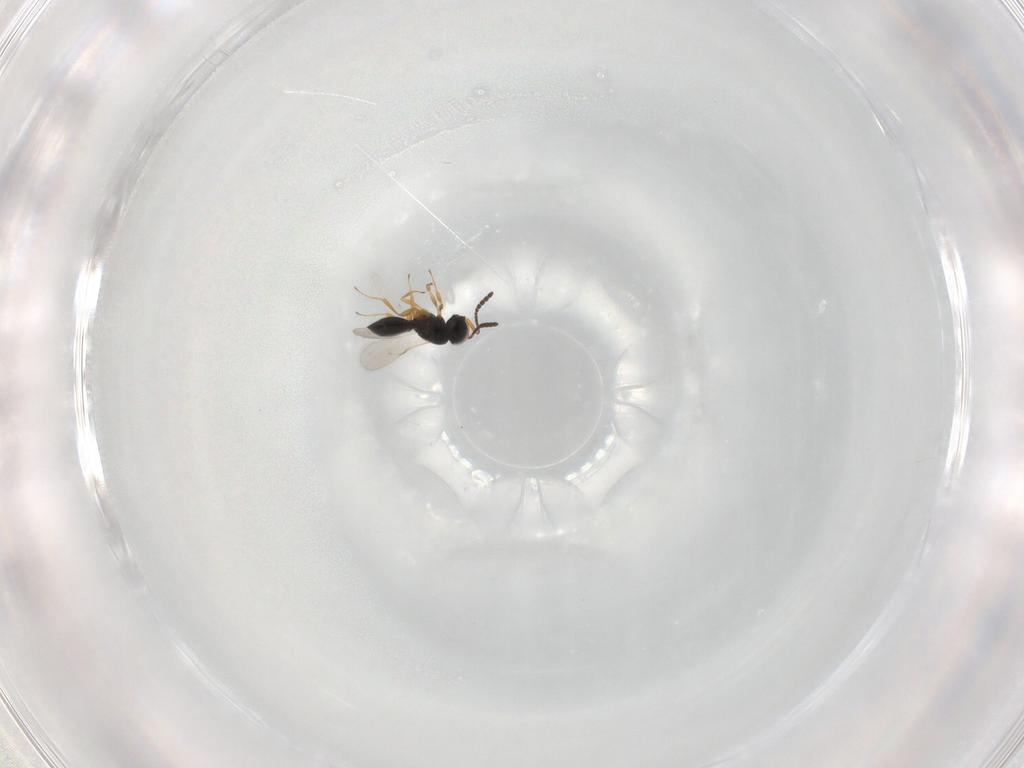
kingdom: Animalia
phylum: Arthropoda
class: Insecta
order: Hymenoptera
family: Scelionidae
